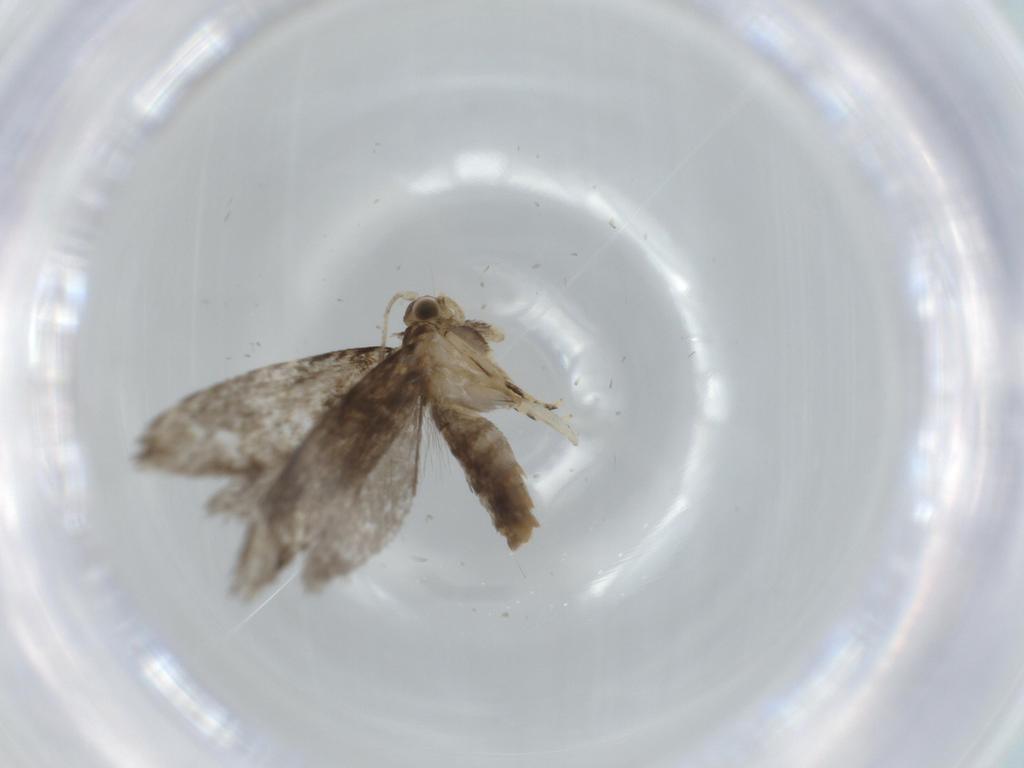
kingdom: Animalia
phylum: Arthropoda
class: Insecta
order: Lepidoptera
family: Tineidae
